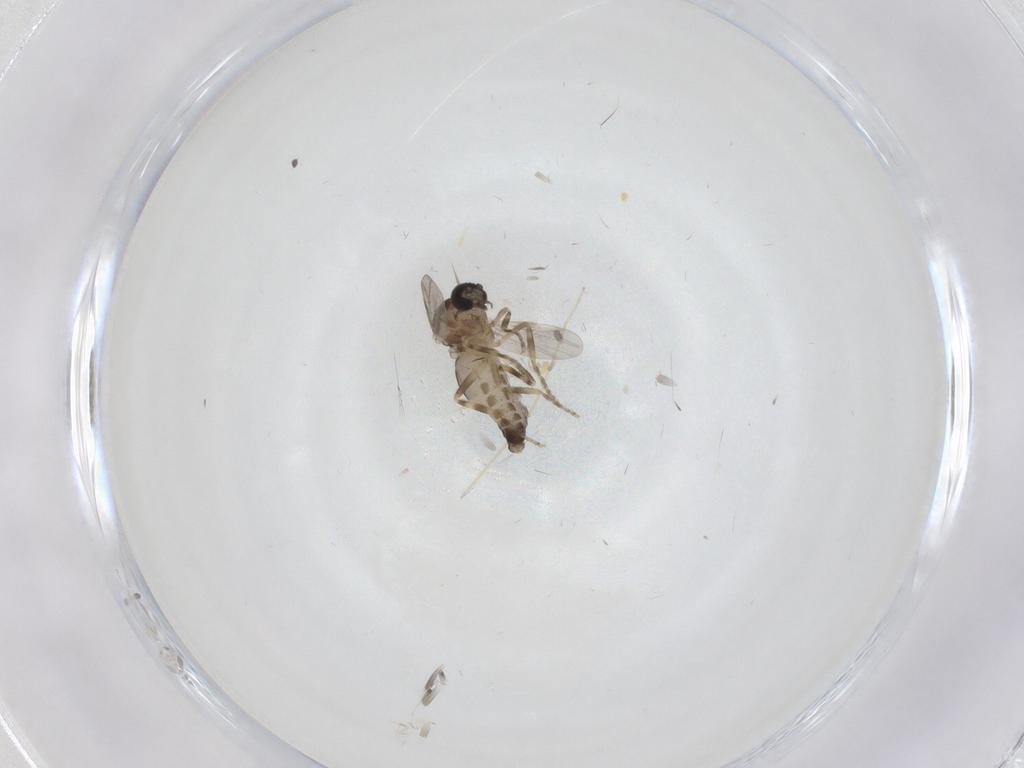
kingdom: Animalia
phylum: Arthropoda
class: Insecta
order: Diptera
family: Ceratopogonidae
